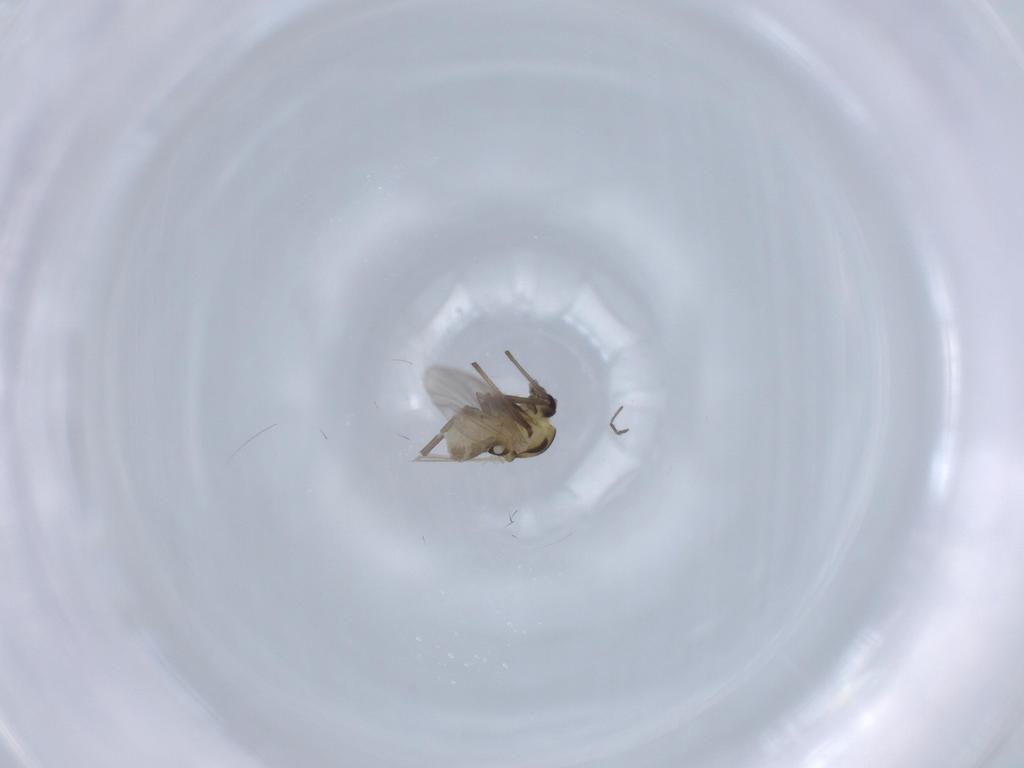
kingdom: Animalia
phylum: Arthropoda
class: Insecta
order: Diptera
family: Chironomidae
